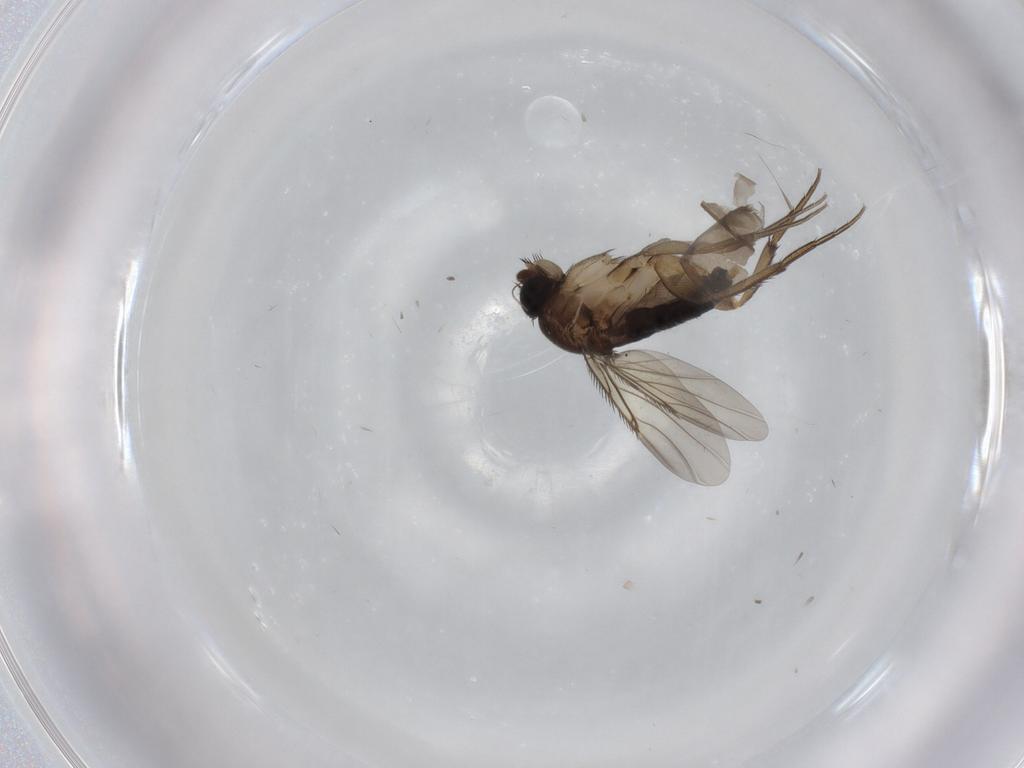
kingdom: Animalia
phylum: Arthropoda
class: Insecta
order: Diptera
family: Phoridae
